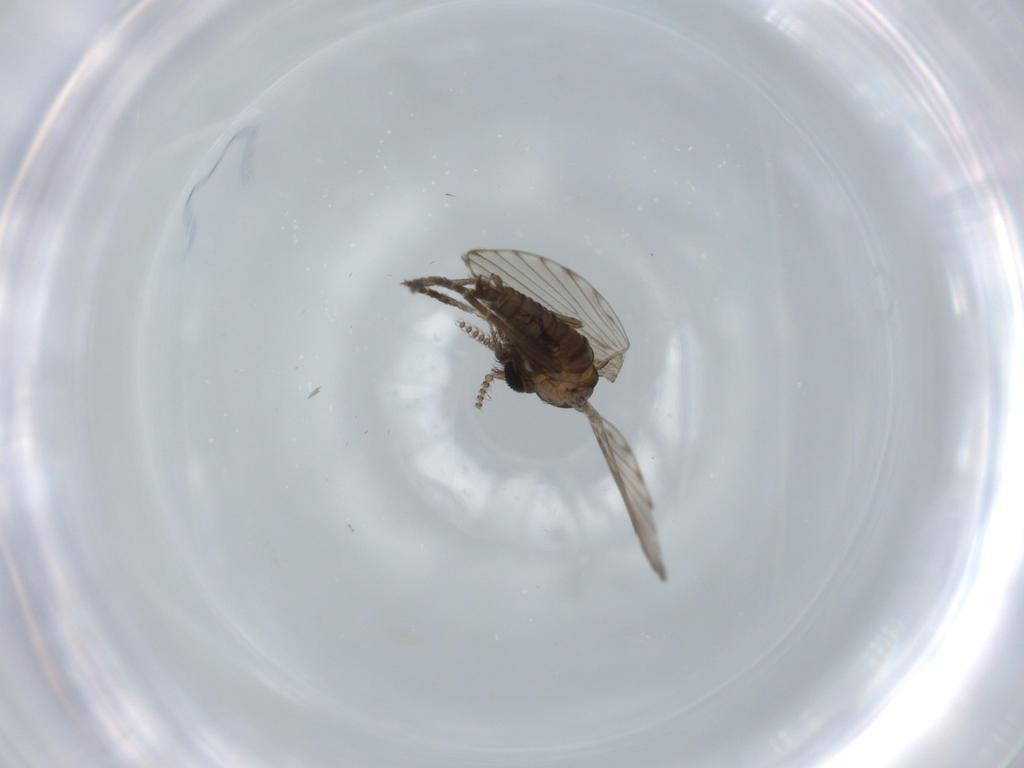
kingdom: Animalia
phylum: Arthropoda
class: Insecta
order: Diptera
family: Psychodidae
